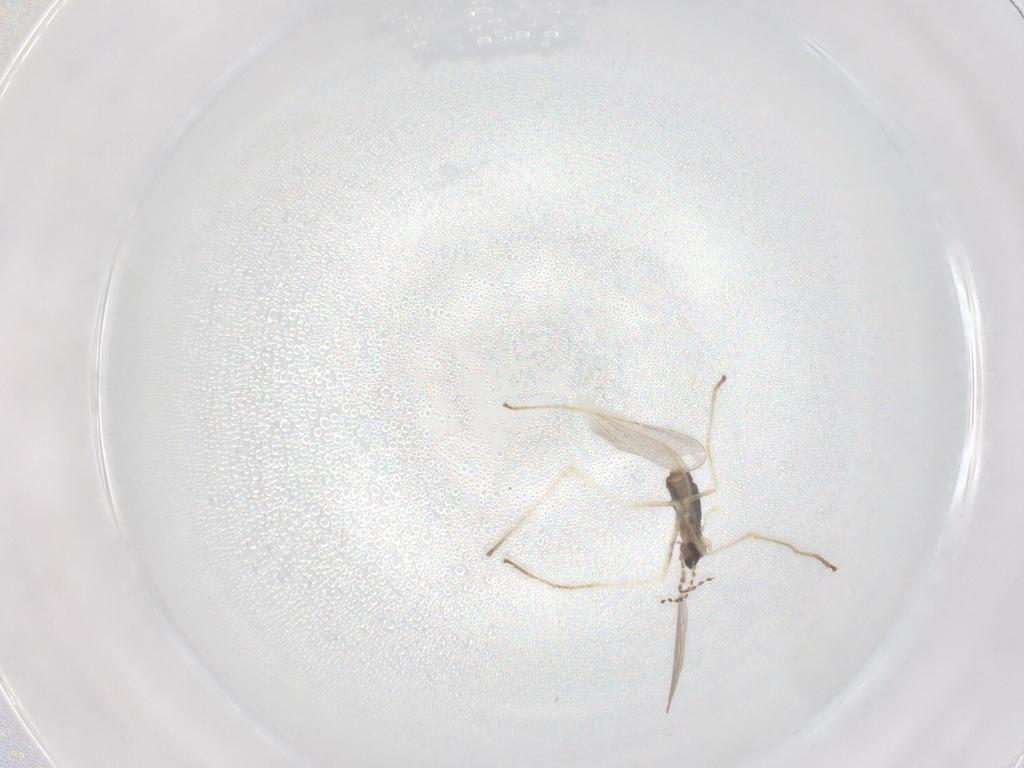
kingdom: Animalia
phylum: Arthropoda
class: Insecta
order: Diptera
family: Cecidomyiidae
